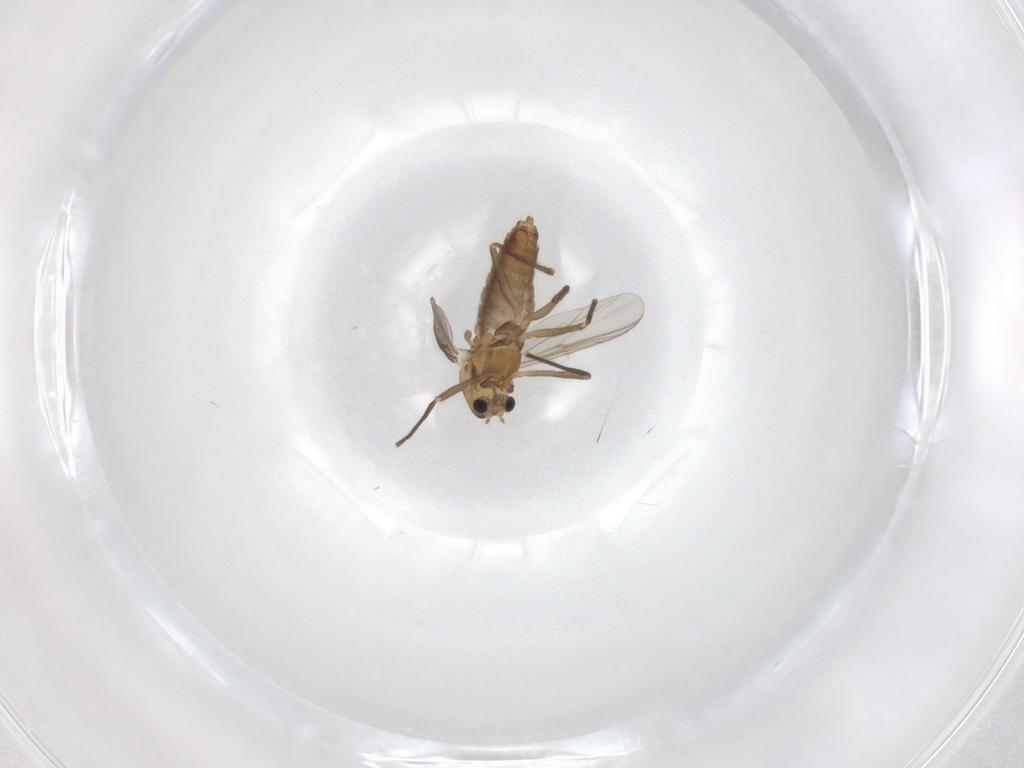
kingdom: Animalia
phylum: Arthropoda
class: Insecta
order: Diptera
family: Chironomidae
